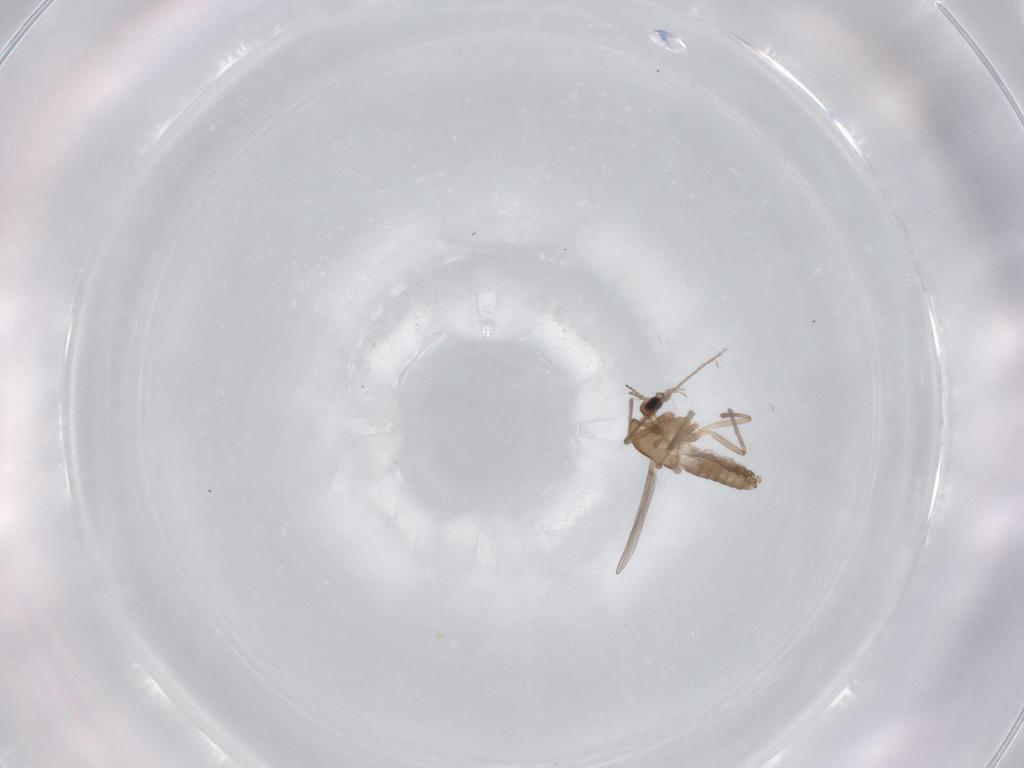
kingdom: Animalia
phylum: Arthropoda
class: Insecta
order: Diptera
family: Chironomidae
